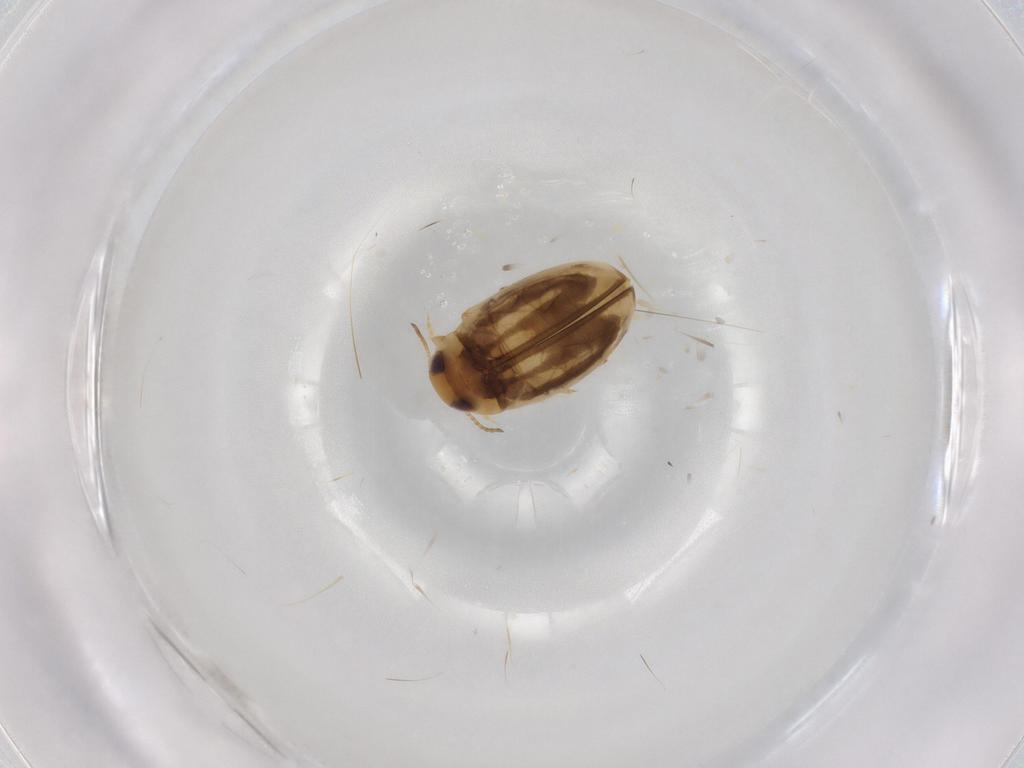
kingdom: Animalia
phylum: Arthropoda
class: Insecta
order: Coleoptera
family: Dytiscidae
